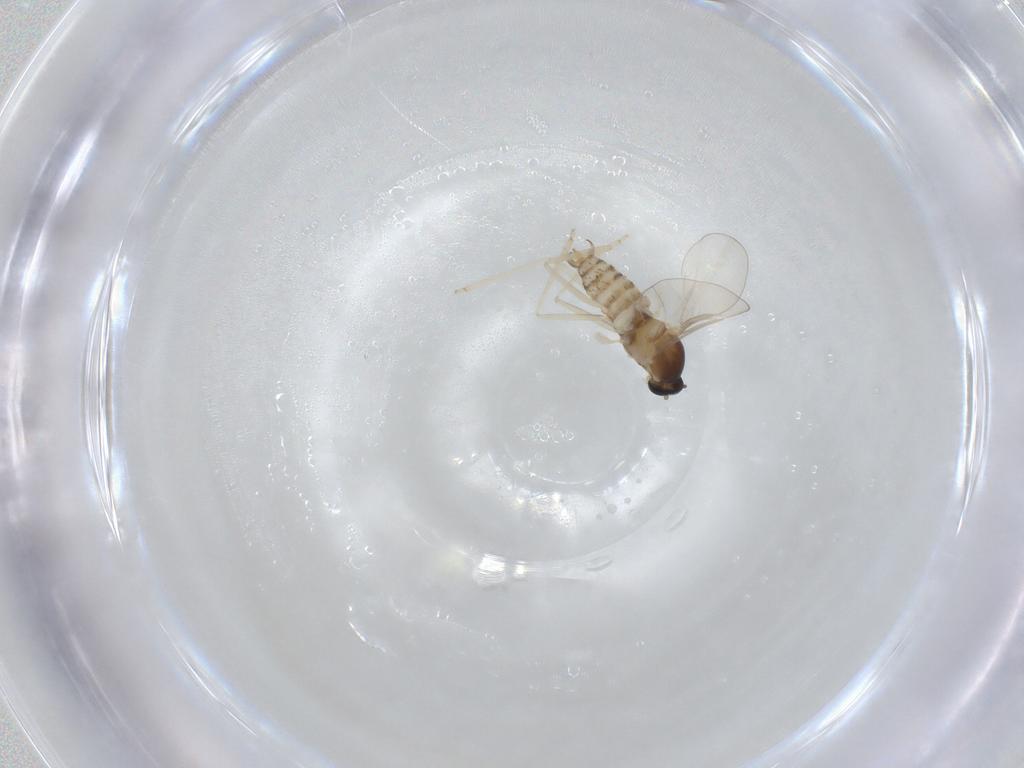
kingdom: Animalia
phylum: Arthropoda
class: Insecta
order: Diptera
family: Cecidomyiidae
